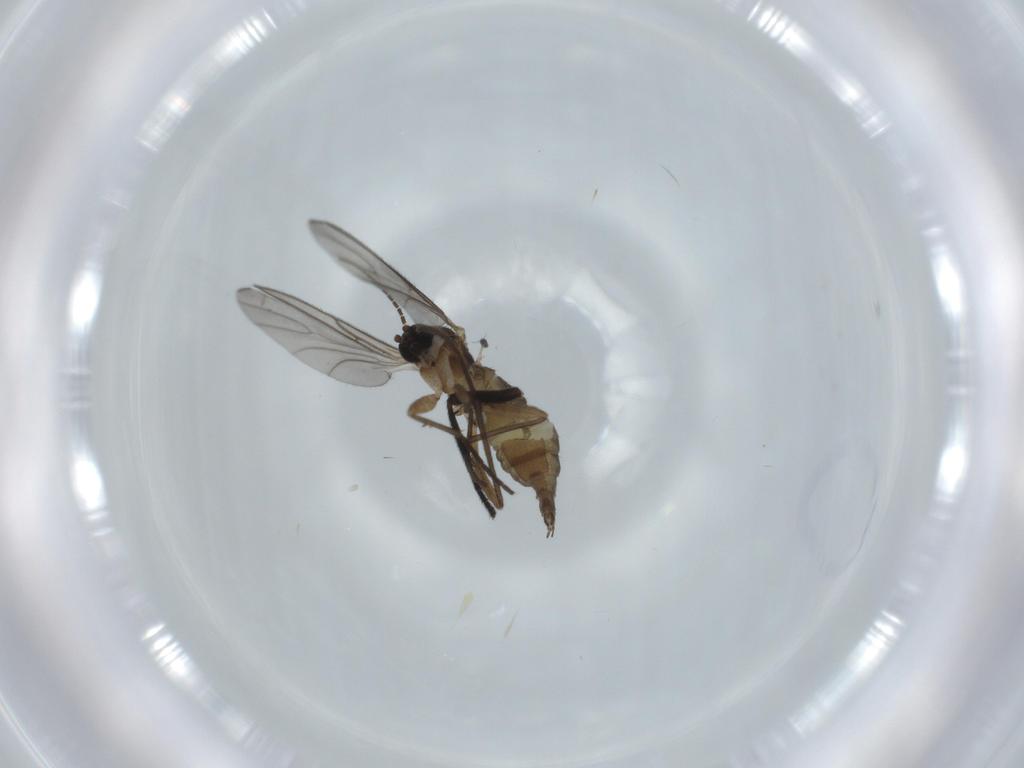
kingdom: Animalia
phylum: Arthropoda
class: Insecta
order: Diptera
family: Sciaridae
